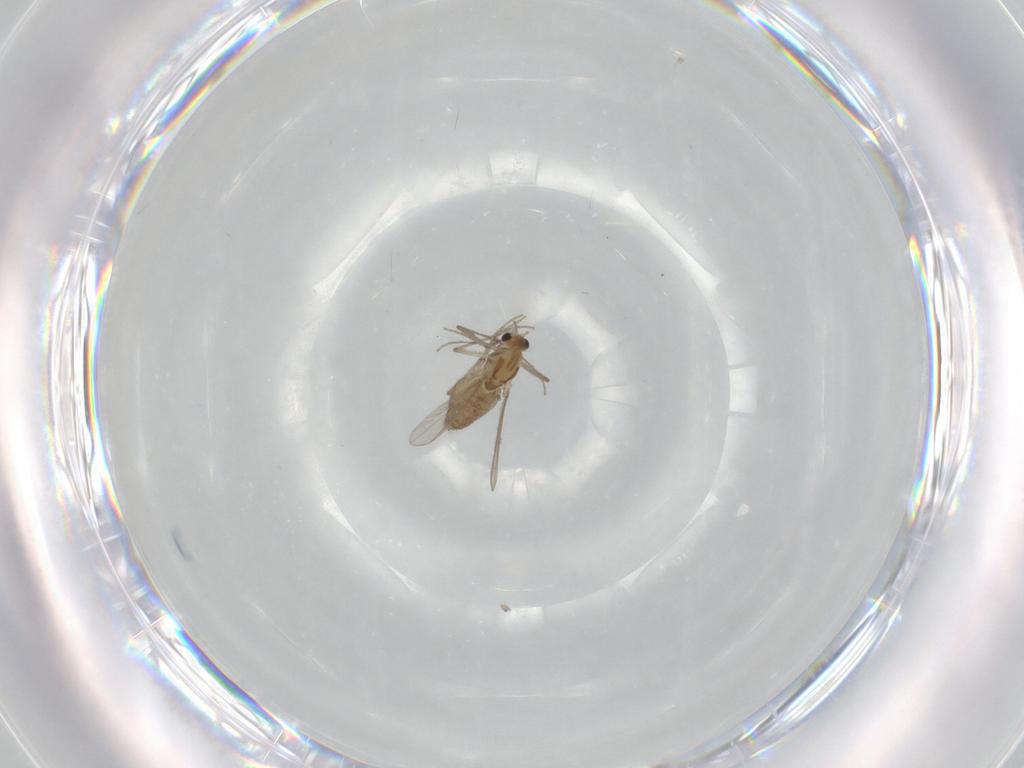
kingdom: Animalia
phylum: Arthropoda
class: Insecta
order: Diptera
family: Chironomidae
